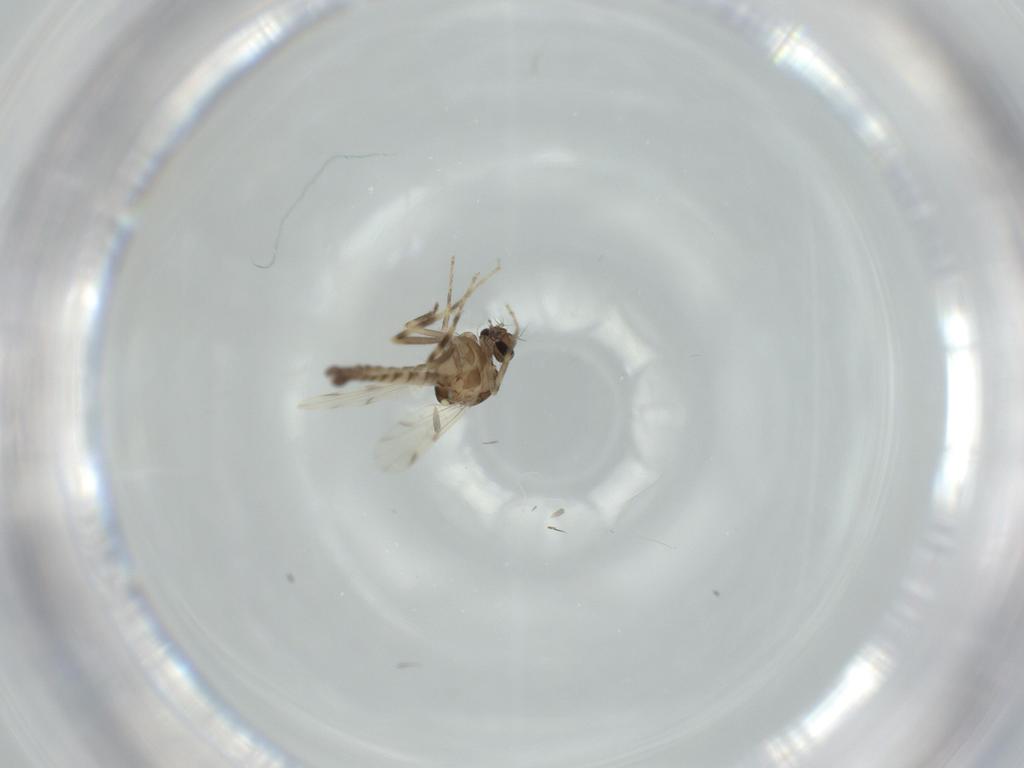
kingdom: Animalia
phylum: Arthropoda
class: Insecta
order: Diptera
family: Ceratopogonidae
